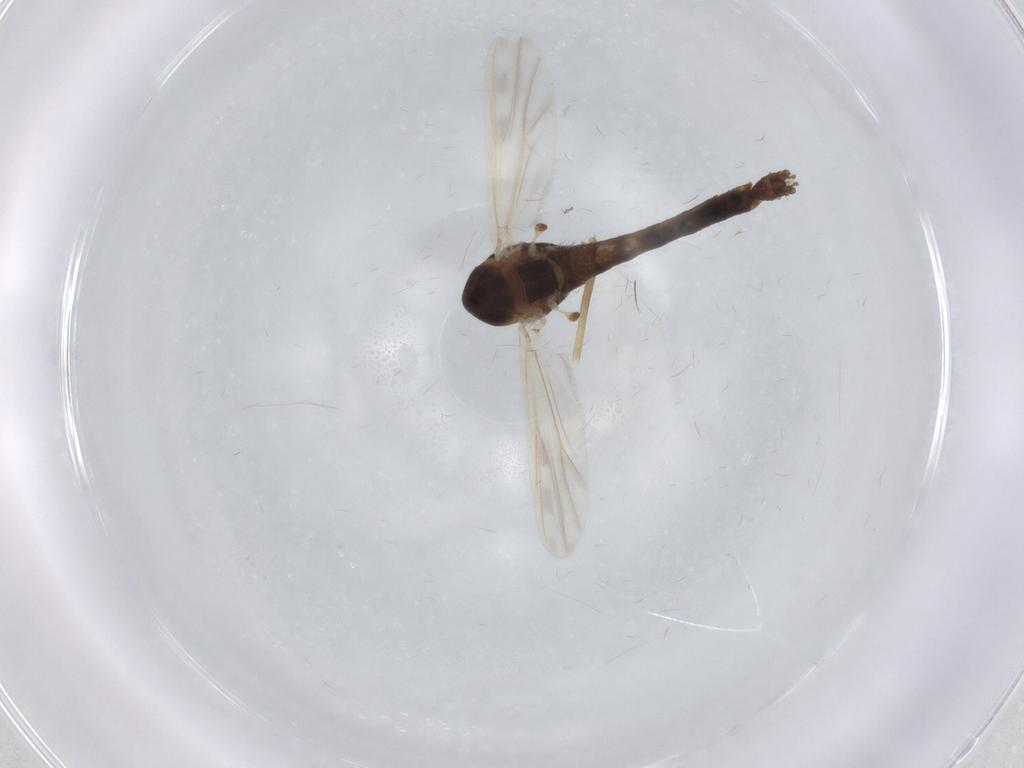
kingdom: Animalia
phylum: Arthropoda
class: Insecta
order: Diptera
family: Chironomidae
